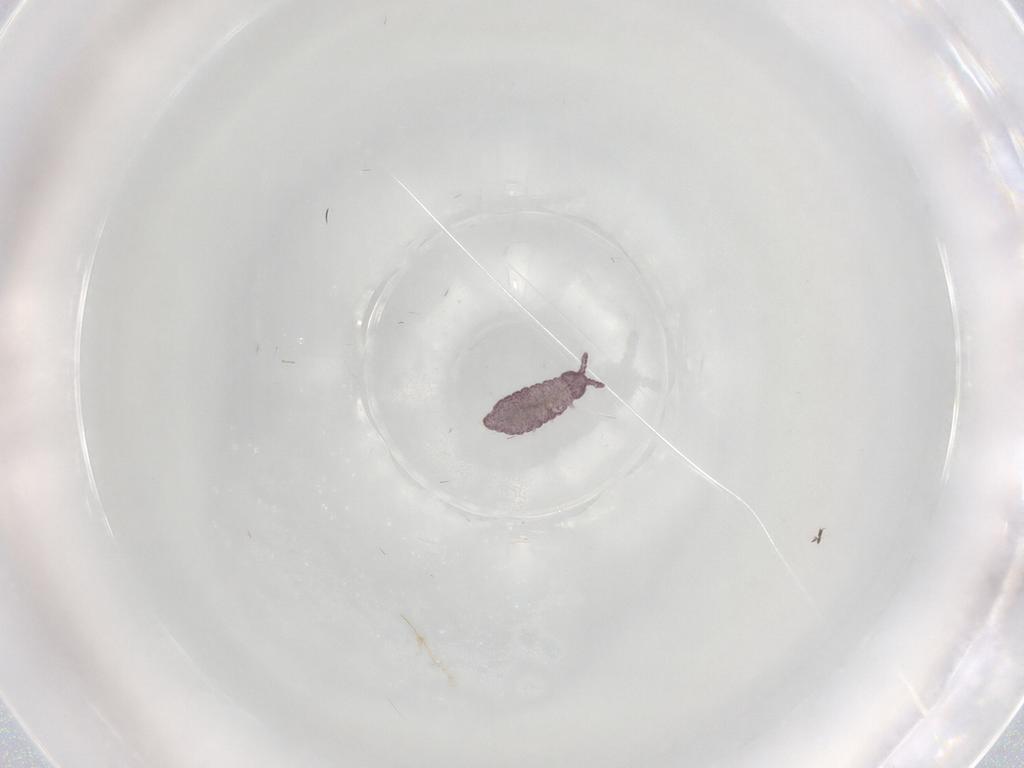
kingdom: Animalia
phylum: Arthropoda
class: Collembola
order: Poduromorpha
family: Hypogastruridae
